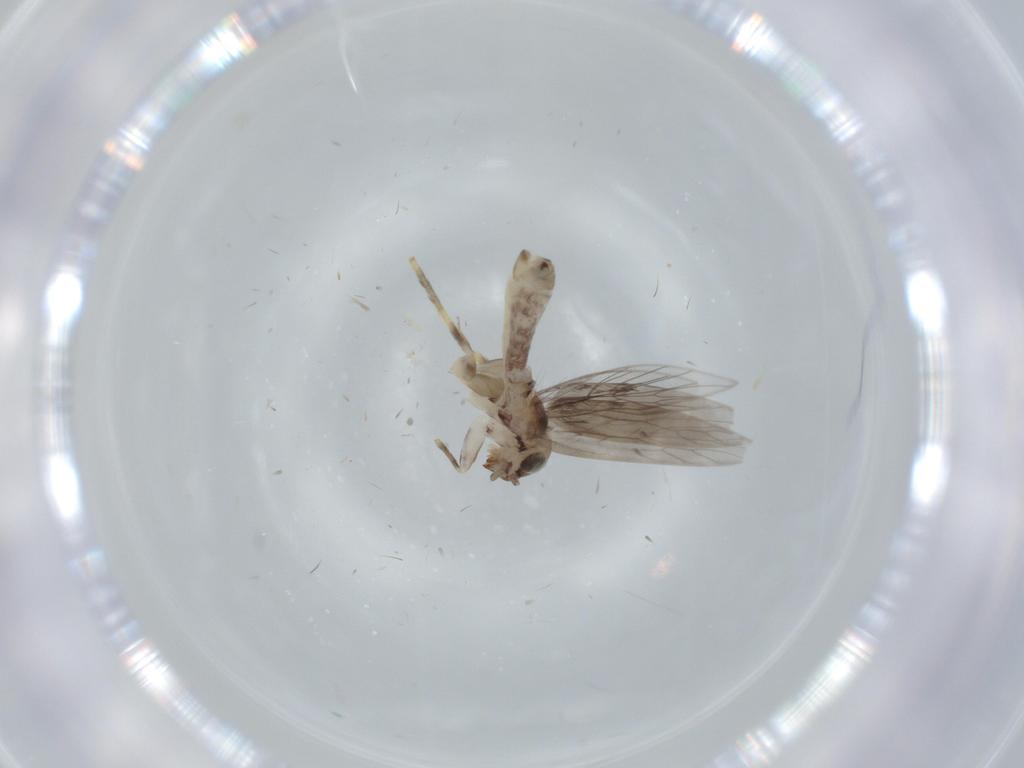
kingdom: Animalia
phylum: Arthropoda
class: Insecta
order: Psocodea
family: Lepidopsocidae
